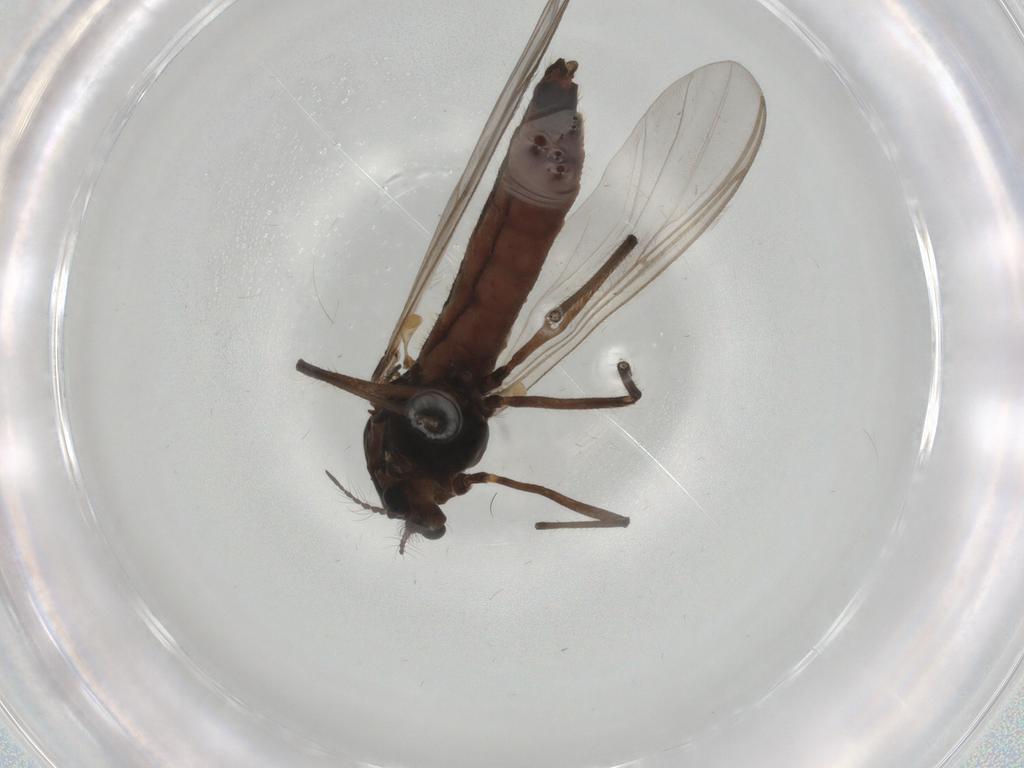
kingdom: Animalia
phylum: Arthropoda
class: Insecta
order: Diptera
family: Chironomidae
